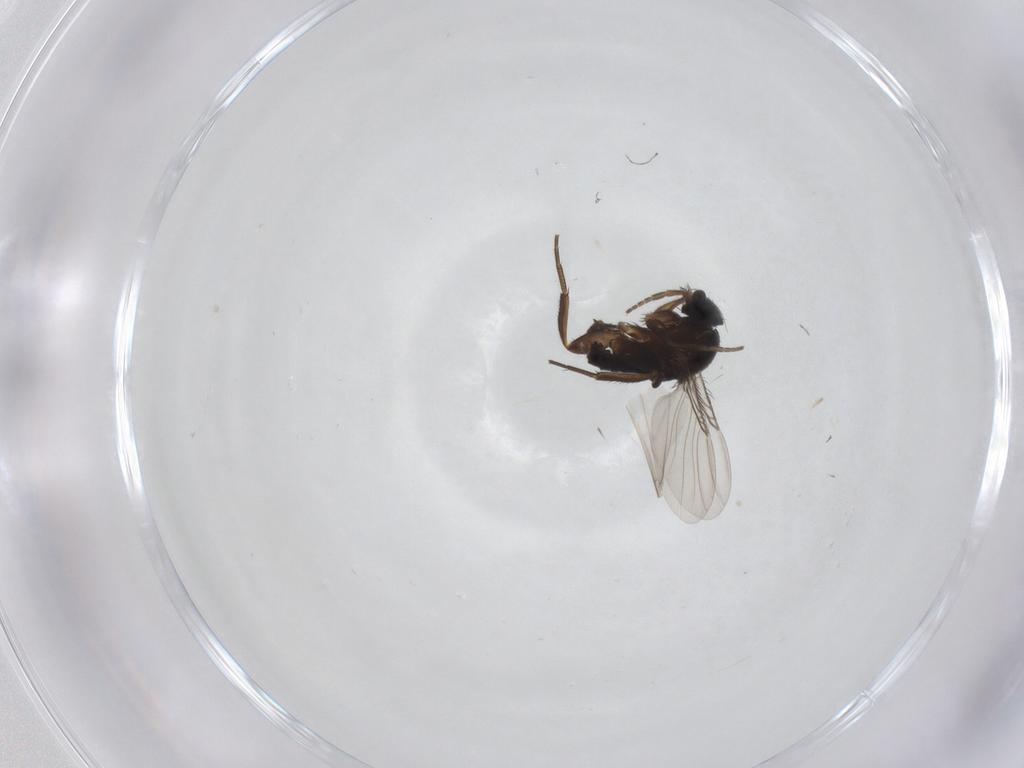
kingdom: Animalia
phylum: Arthropoda
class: Insecta
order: Diptera
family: Phoridae
